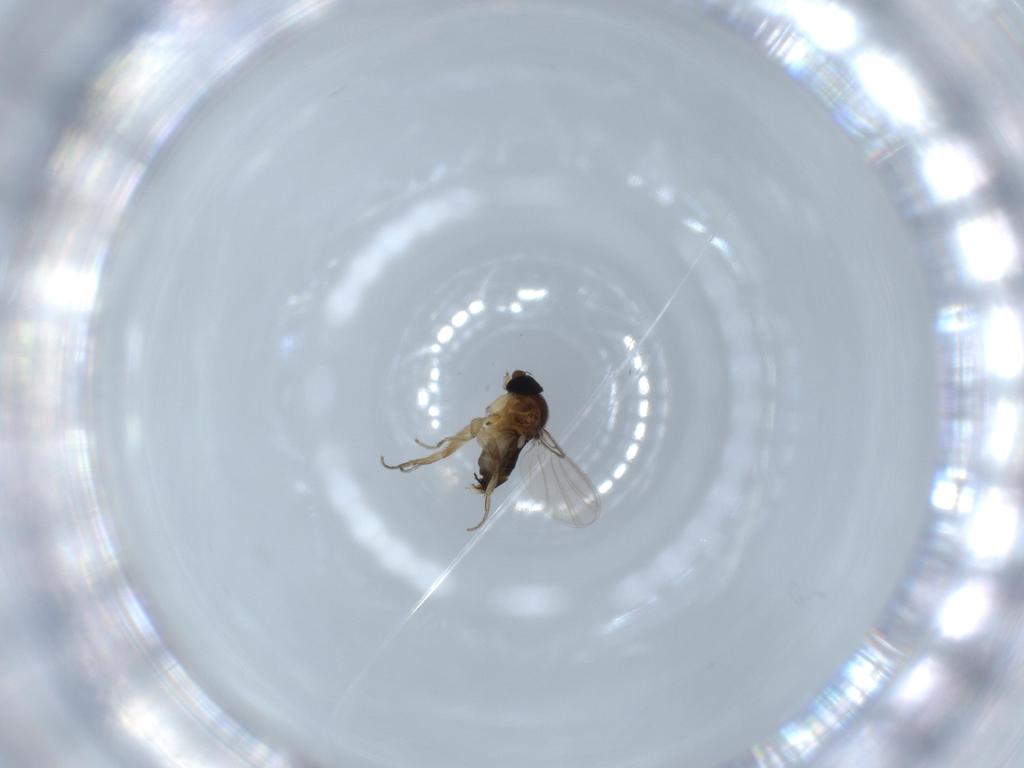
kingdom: Animalia
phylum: Arthropoda
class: Insecta
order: Diptera
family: Phoridae
